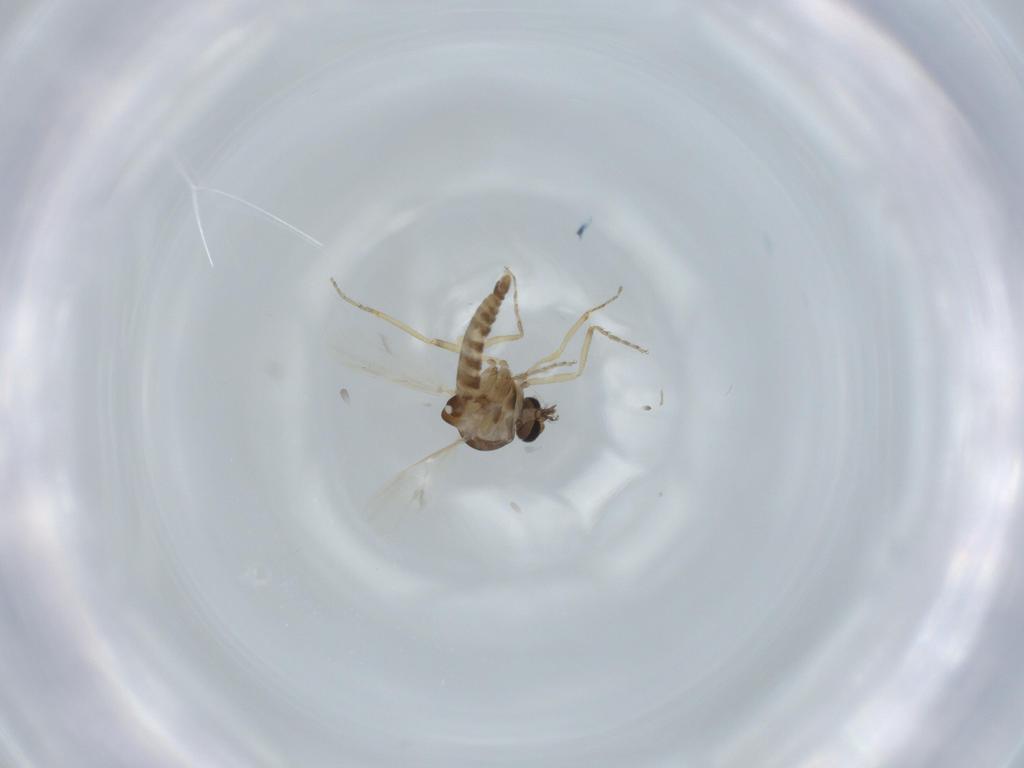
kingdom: Animalia
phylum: Arthropoda
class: Insecta
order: Diptera
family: Ceratopogonidae
